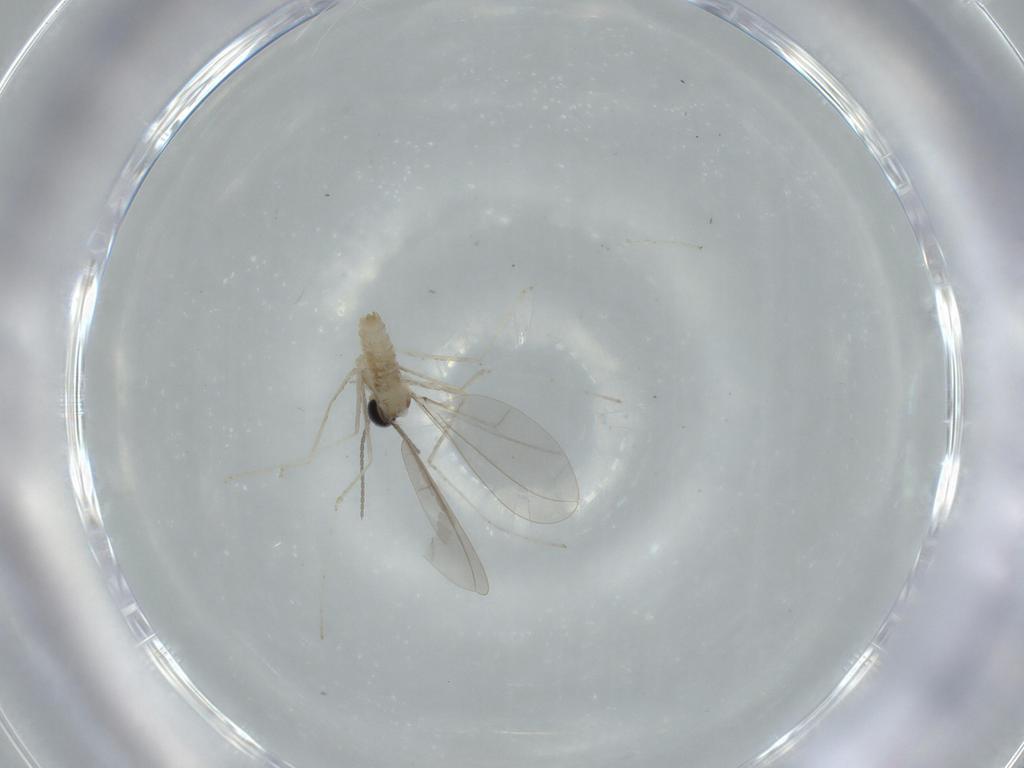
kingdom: Animalia
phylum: Arthropoda
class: Insecta
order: Diptera
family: Cecidomyiidae
